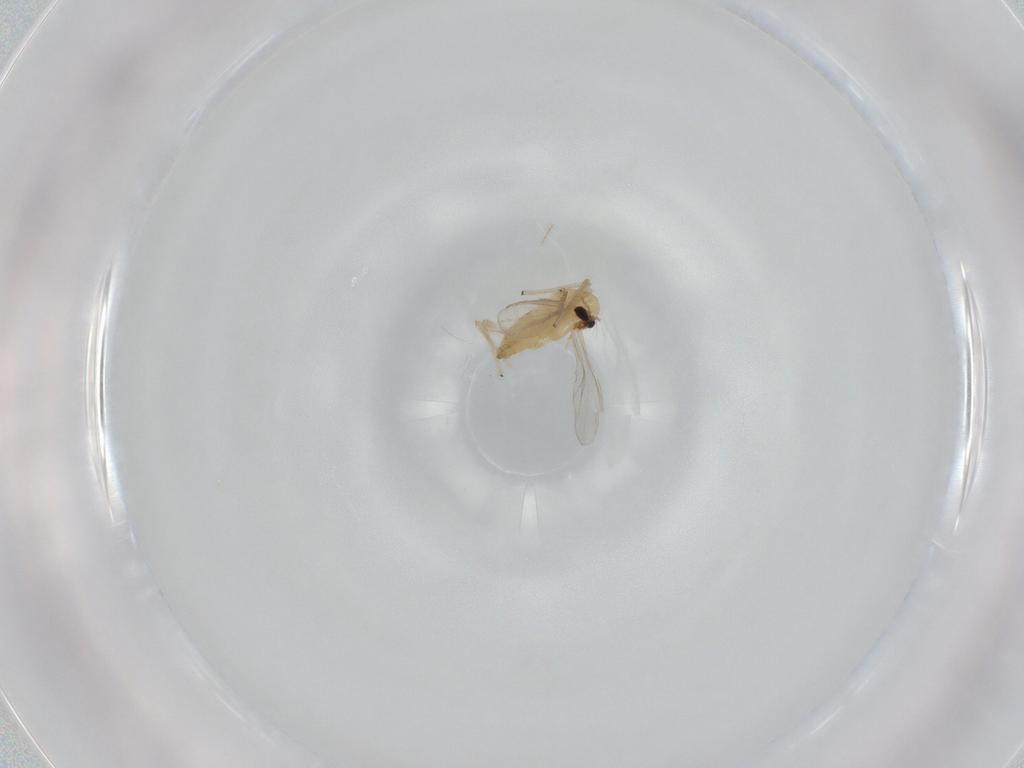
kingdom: Animalia
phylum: Arthropoda
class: Insecta
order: Diptera
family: Chironomidae
